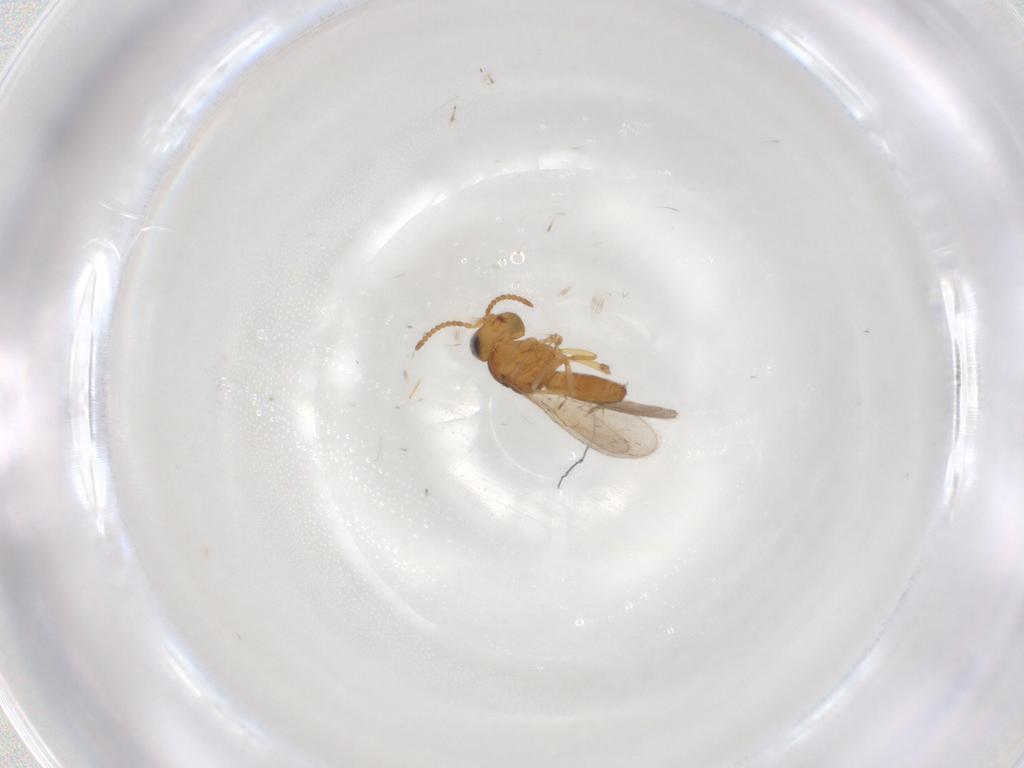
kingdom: Animalia
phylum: Arthropoda
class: Insecta
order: Hymenoptera
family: Scelionidae
